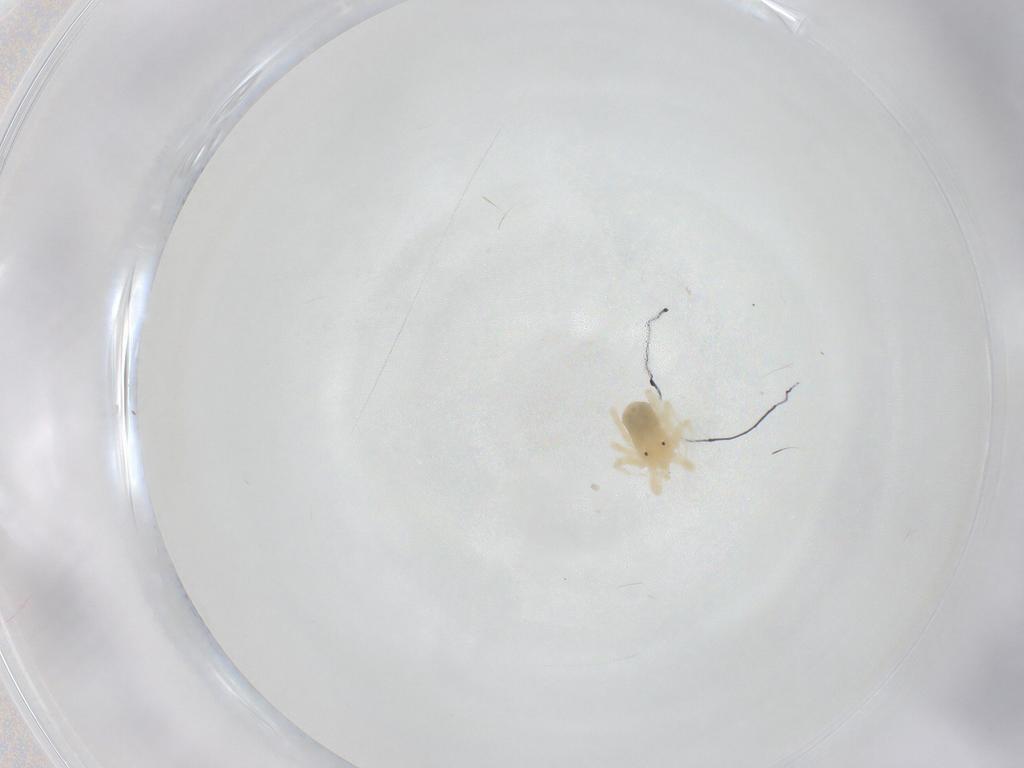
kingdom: Animalia
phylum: Arthropoda
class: Arachnida
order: Trombidiformes
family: Anystidae
